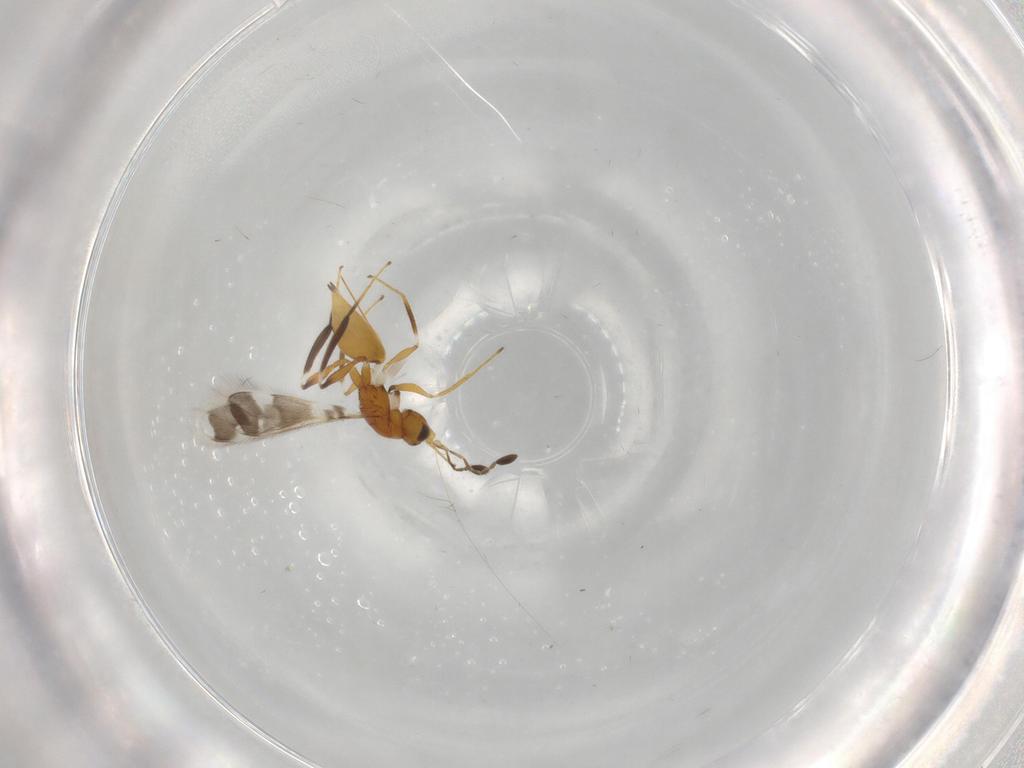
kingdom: Animalia
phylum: Arthropoda
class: Insecta
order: Hymenoptera
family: Mymaridae
